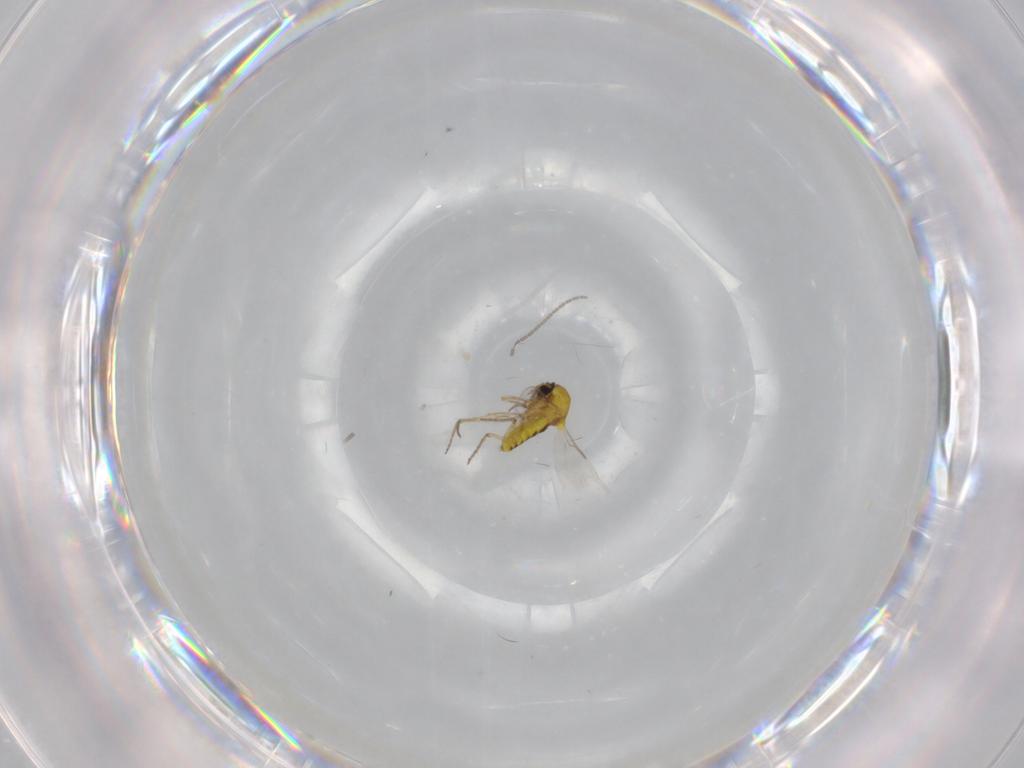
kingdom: Animalia
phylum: Arthropoda
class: Insecta
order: Diptera
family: Ceratopogonidae
